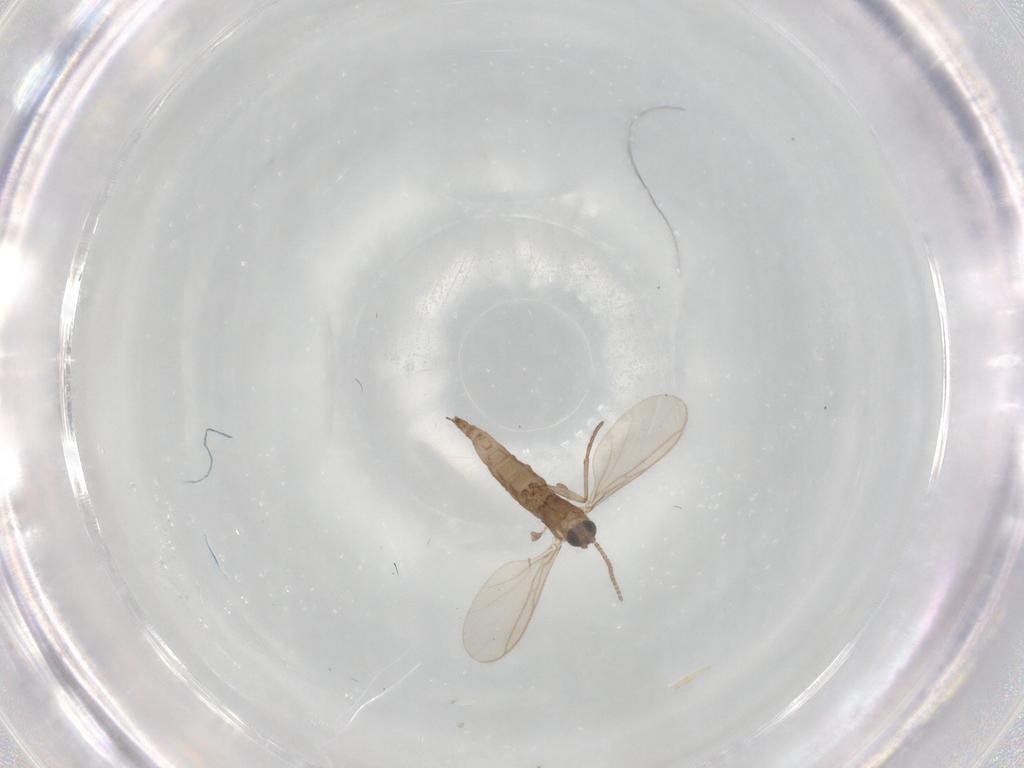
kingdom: Animalia
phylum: Arthropoda
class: Insecta
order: Diptera
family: Sciaridae
